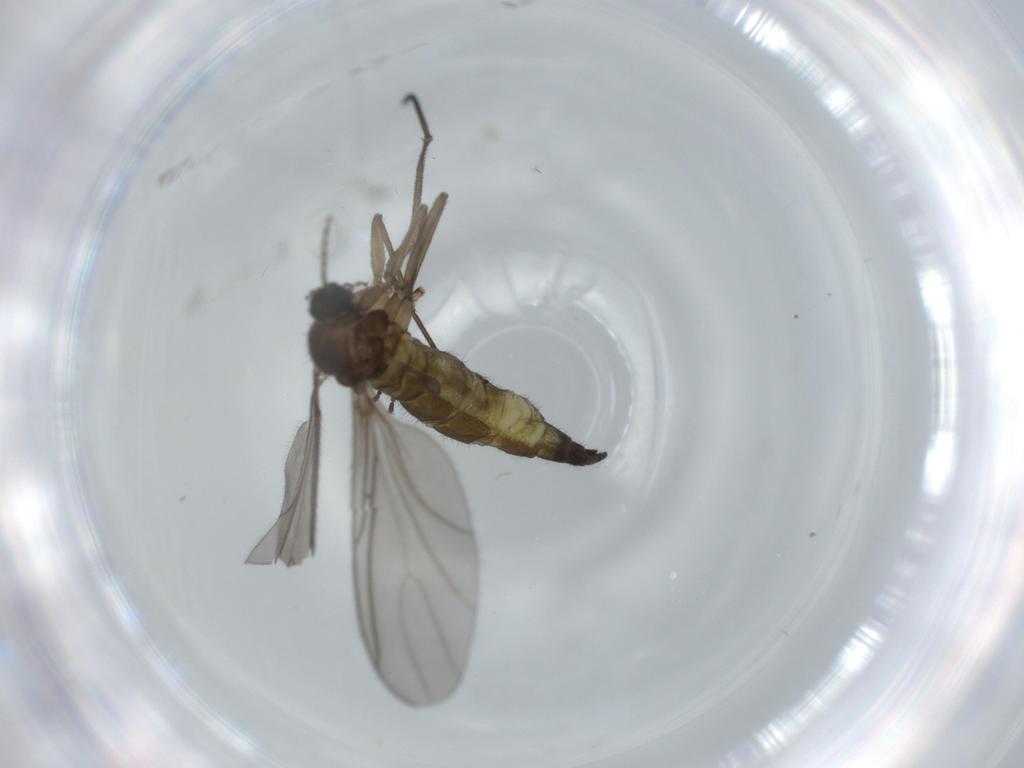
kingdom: Animalia
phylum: Arthropoda
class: Insecta
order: Diptera
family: Sciaridae
